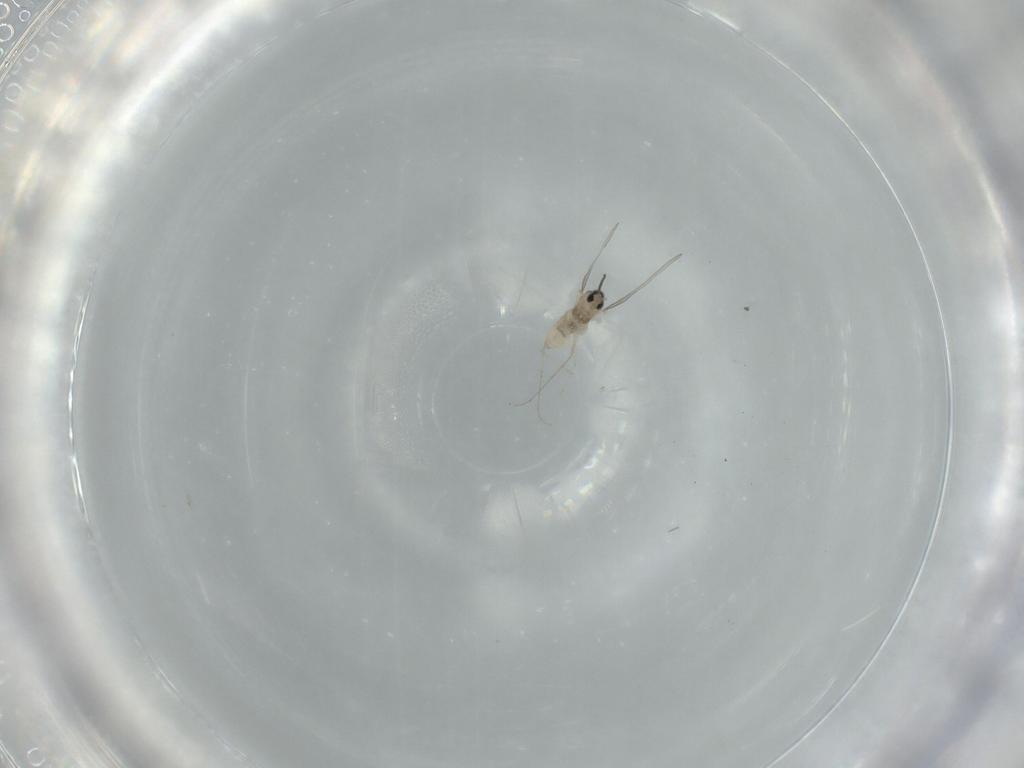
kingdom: Animalia
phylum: Arthropoda
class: Insecta
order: Diptera
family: Cecidomyiidae
